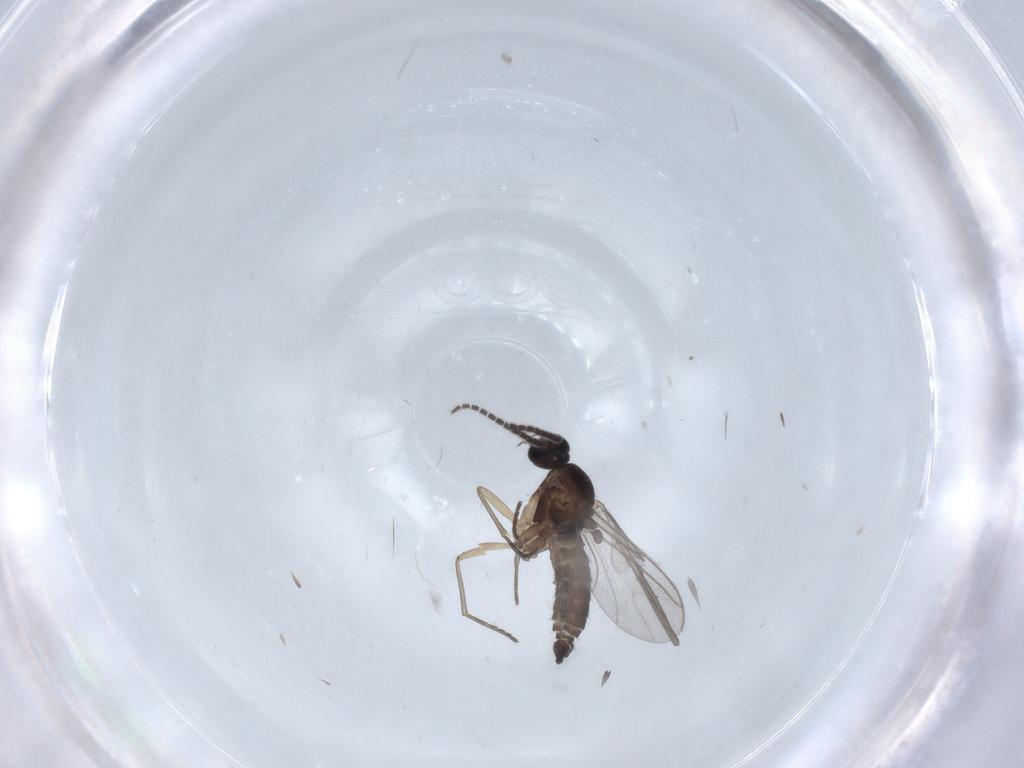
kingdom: Animalia
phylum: Arthropoda
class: Insecta
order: Diptera
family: Sciaridae
